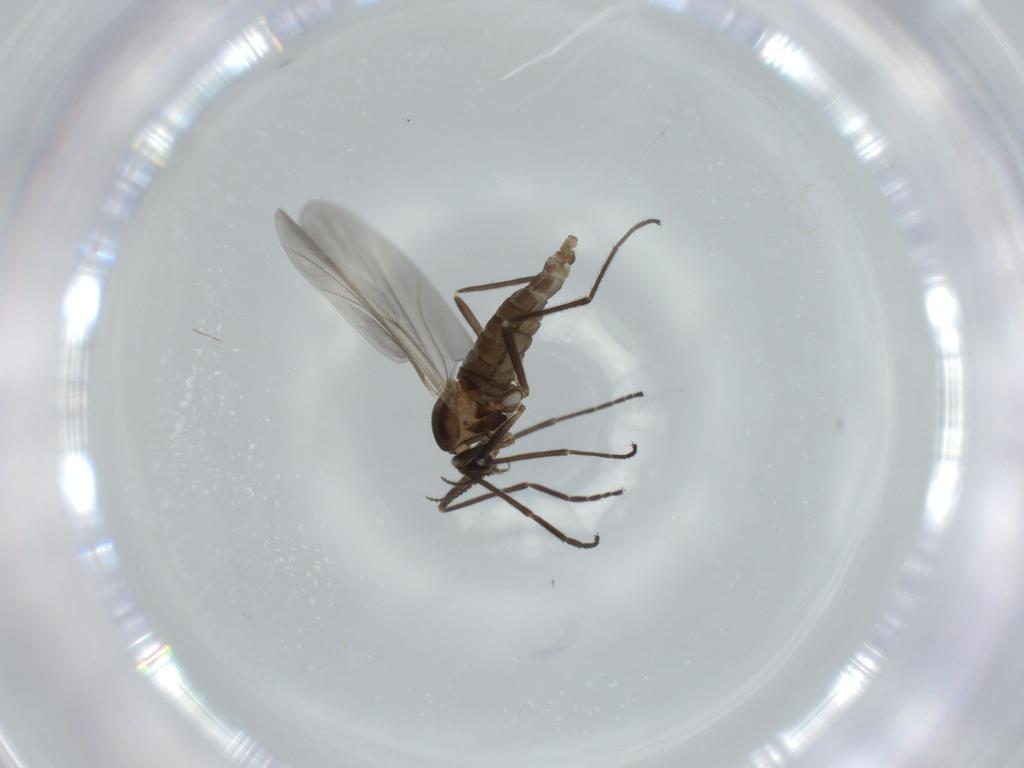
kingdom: Animalia
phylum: Arthropoda
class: Insecta
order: Diptera
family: Cecidomyiidae
